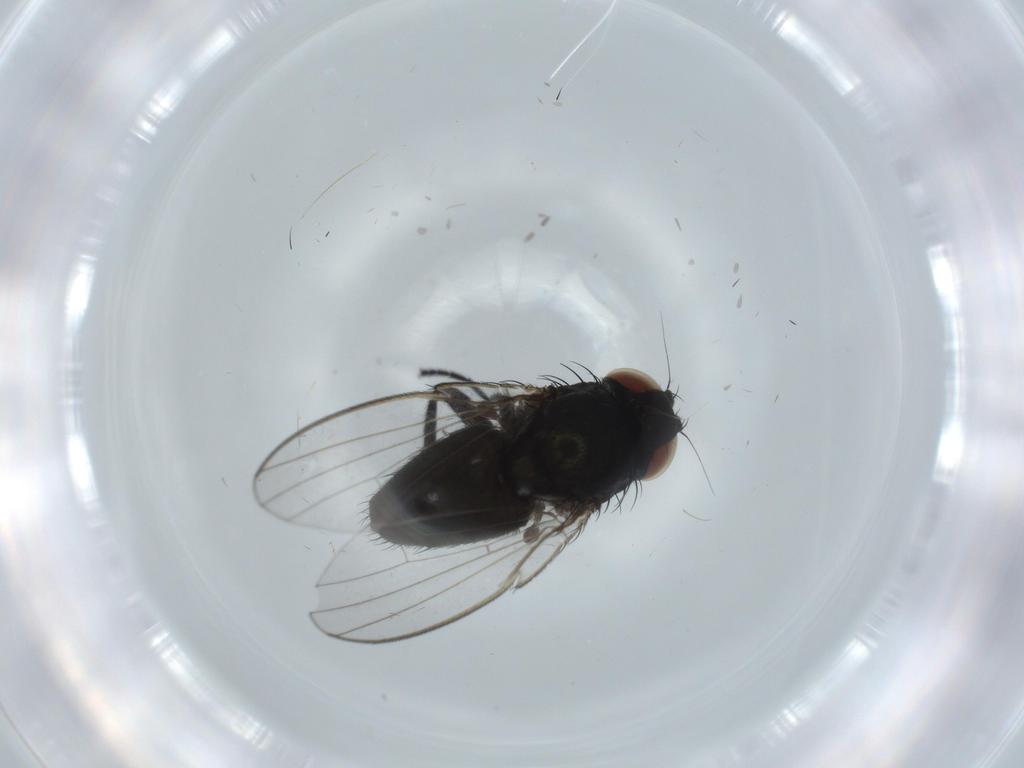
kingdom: Animalia
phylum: Arthropoda
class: Insecta
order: Diptera
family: Milichiidae
